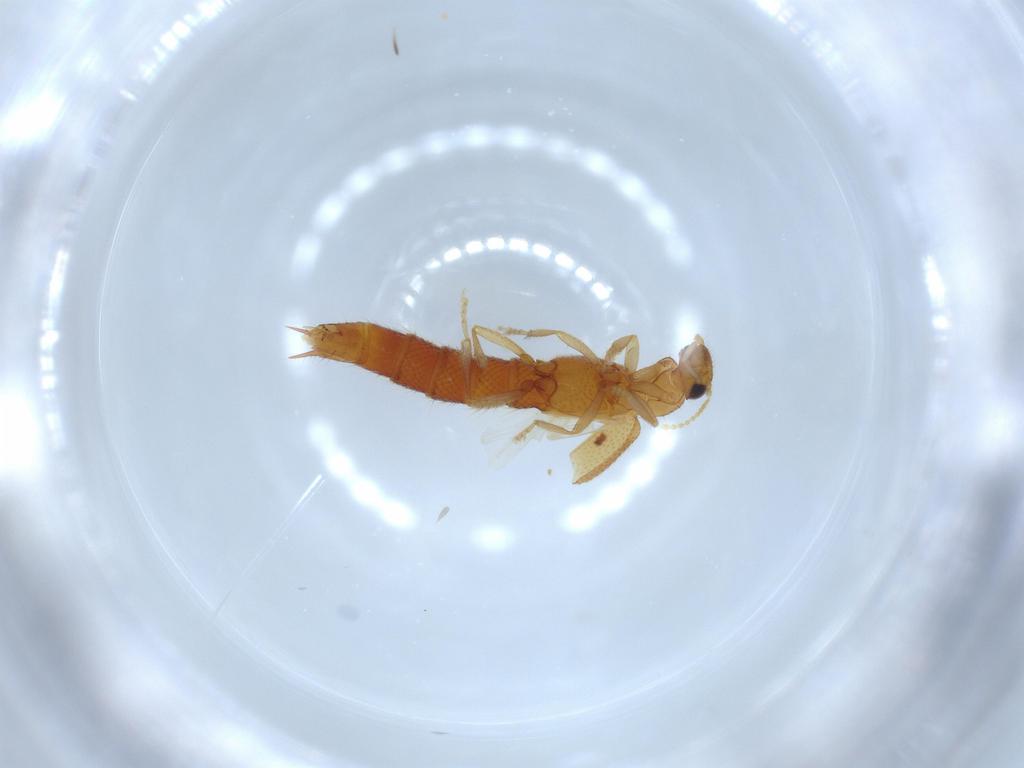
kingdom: Animalia
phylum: Arthropoda
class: Insecta
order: Coleoptera
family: Staphylinidae
